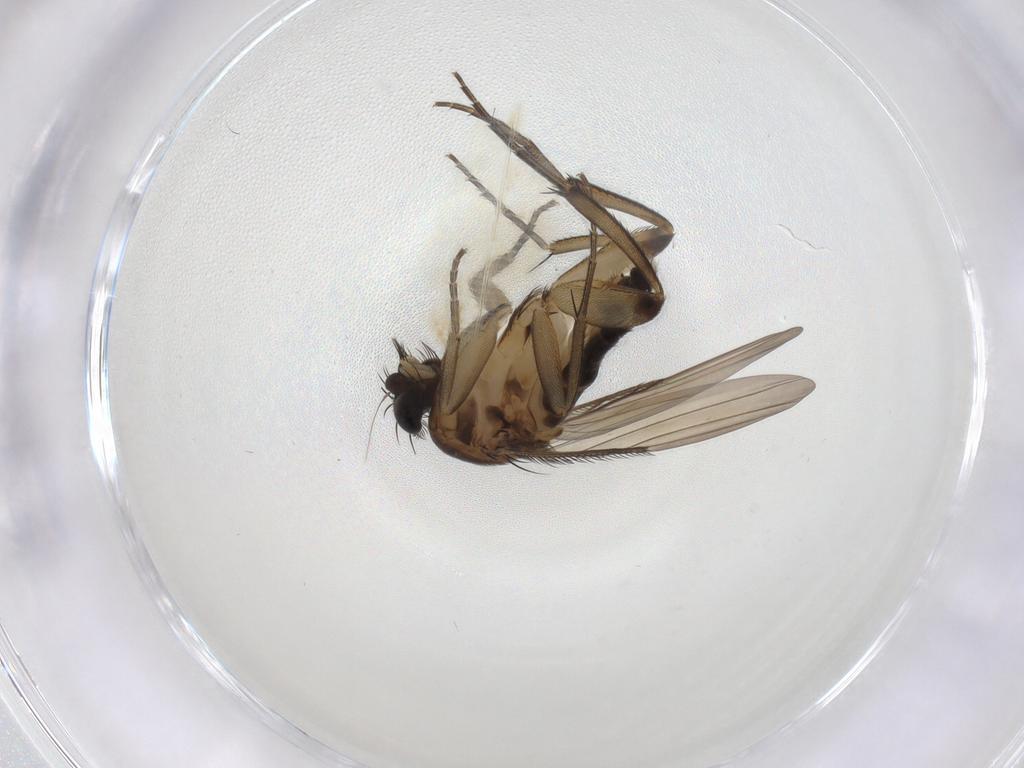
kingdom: Animalia
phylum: Arthropoda
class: Insecta
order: Diptera
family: Phoridae
